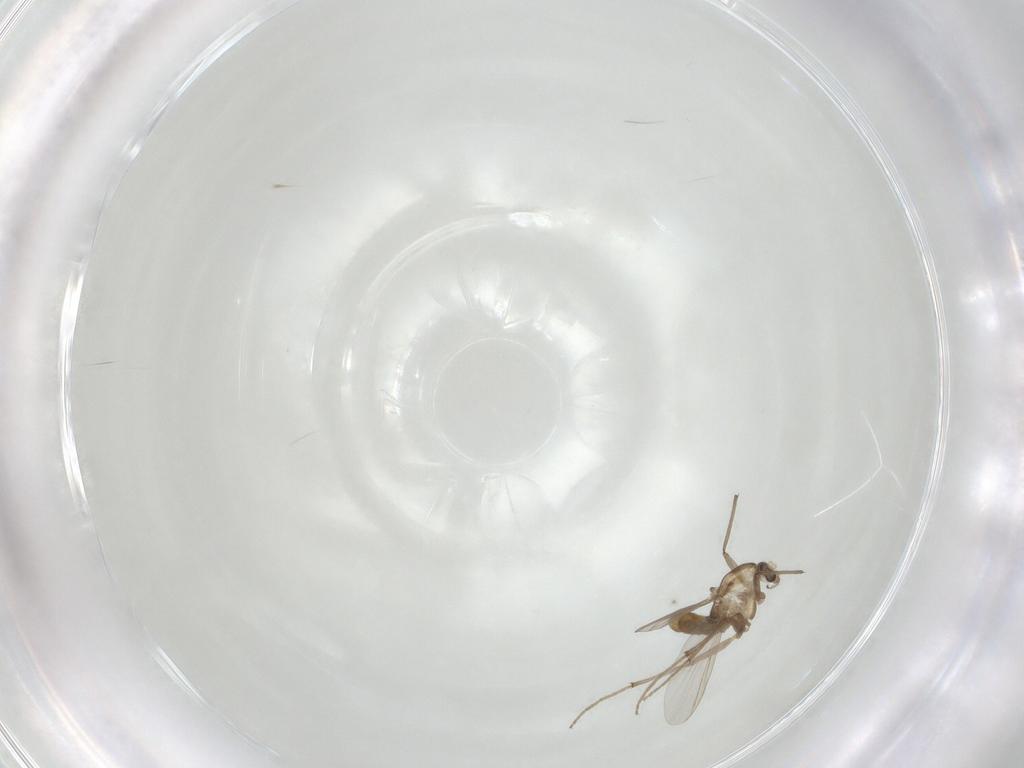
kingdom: Animalia
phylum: Arthropoda
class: Insecta
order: Diptera
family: Chironomidae
